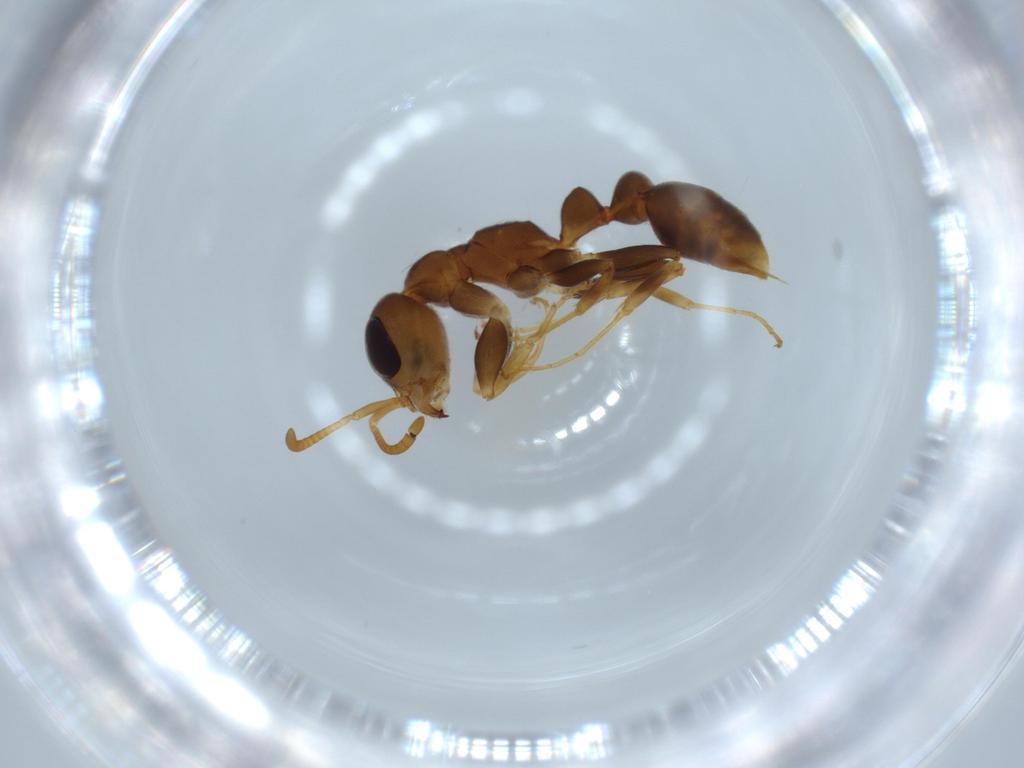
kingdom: Animalia
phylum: Arthropoda
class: Insecta
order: Hymenoptera
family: Formicidae
